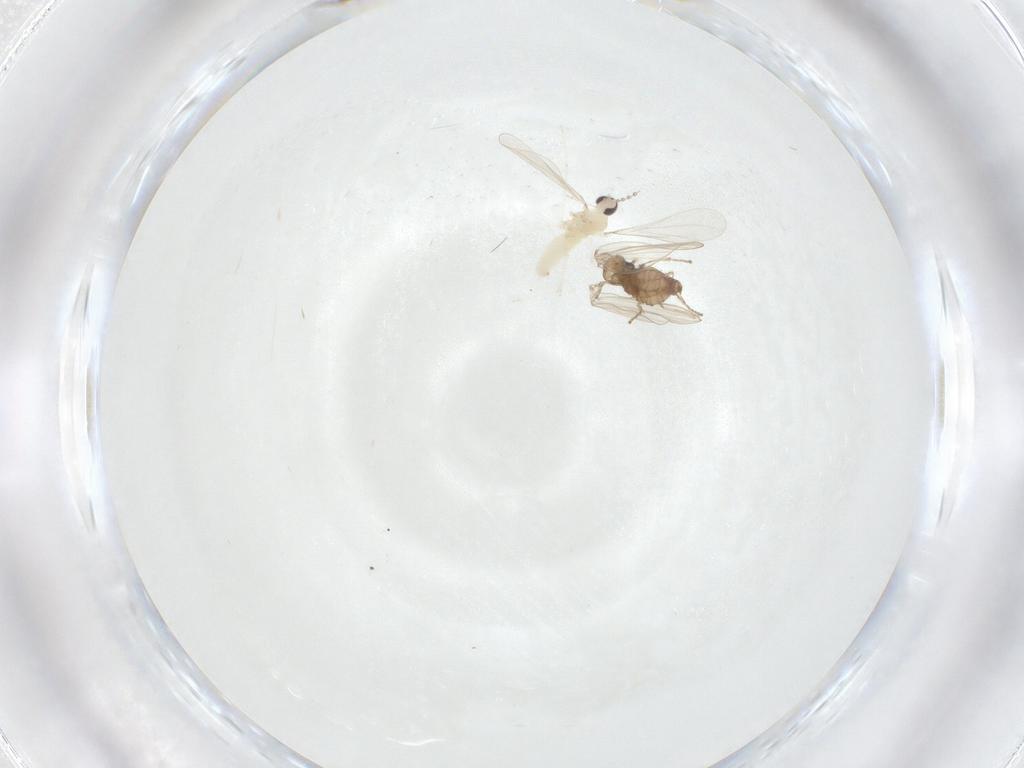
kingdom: Animalia
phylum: Arthropoda
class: Insecta
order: Diptera
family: Cecidomyiidae
